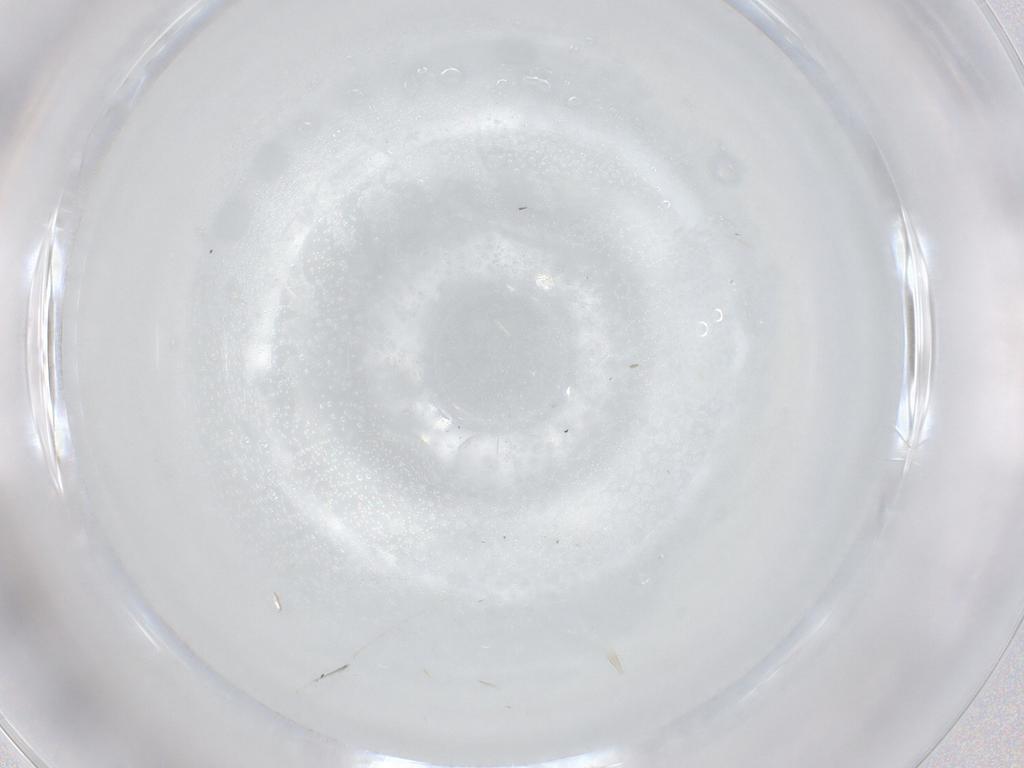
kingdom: Animalia
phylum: Arthropoda
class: Insecta
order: Hymenoptera
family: Platygastridae
